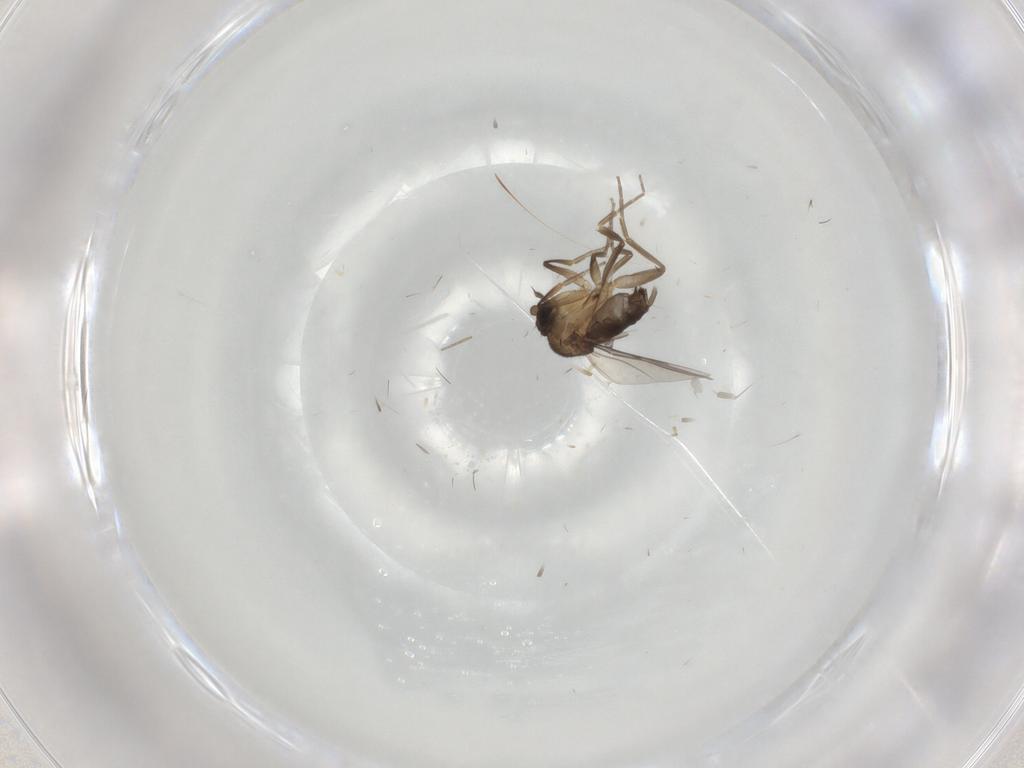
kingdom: Animalia
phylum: Arthropoda
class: Insecta
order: Diptera
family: Phoridae
